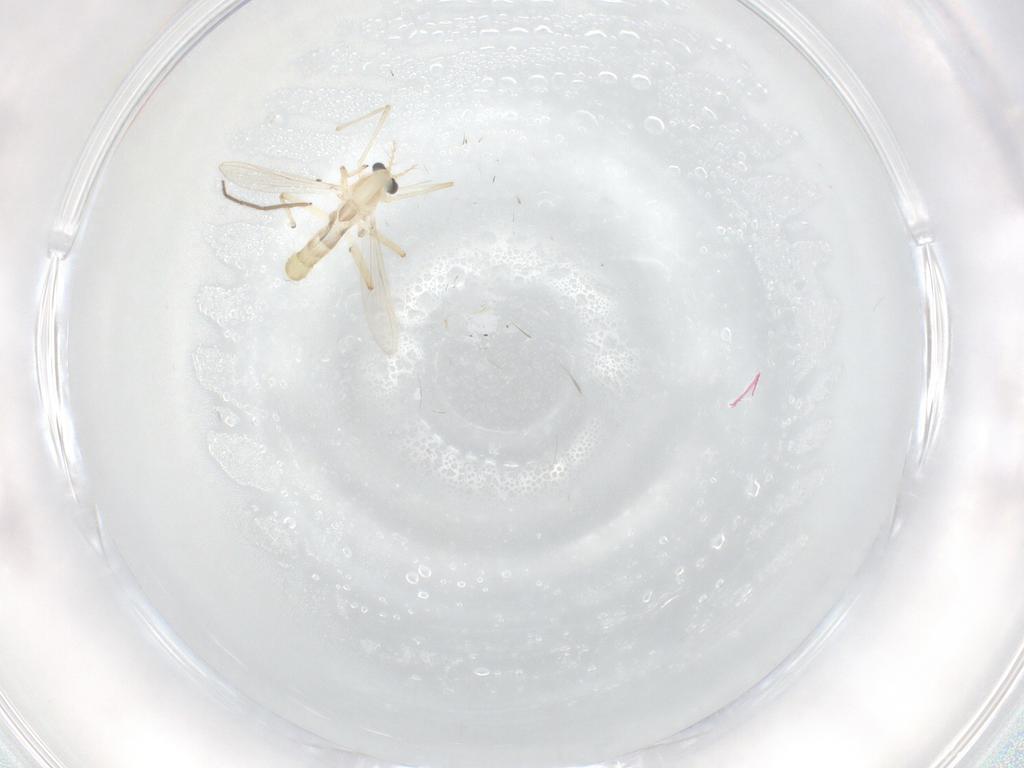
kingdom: Animalia
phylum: Arthropoda
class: Insecta
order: Diptera
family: Chironomidae
